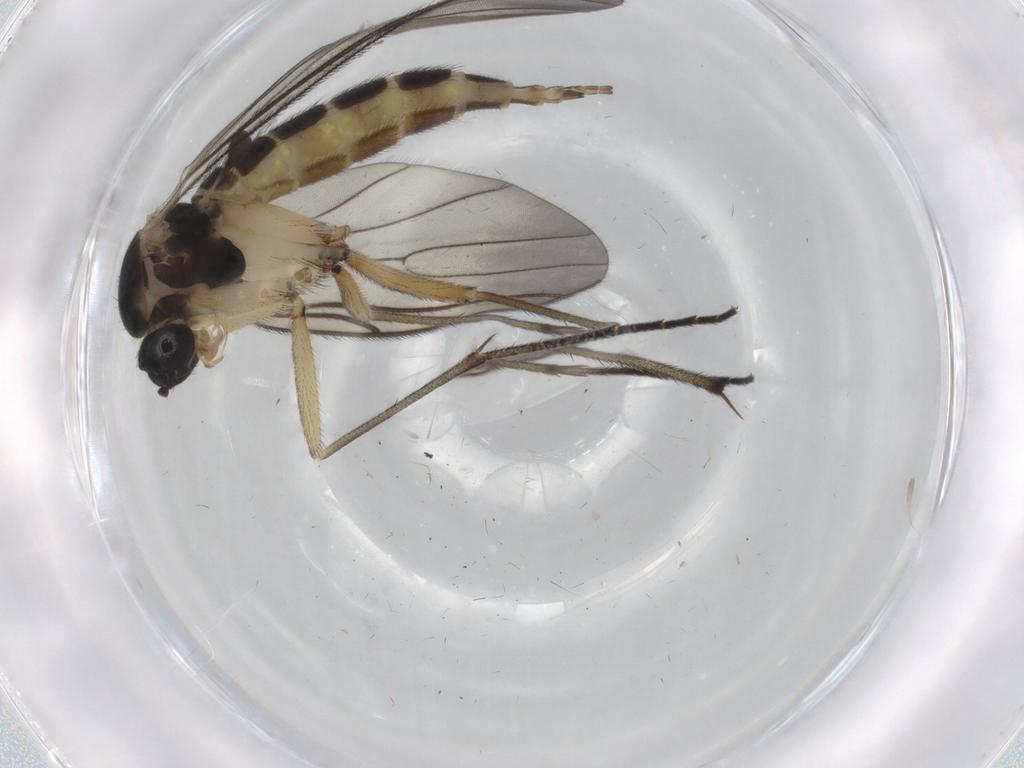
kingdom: Animalia
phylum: Arthropoda
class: Insecta
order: Diptera
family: Sciaridae
